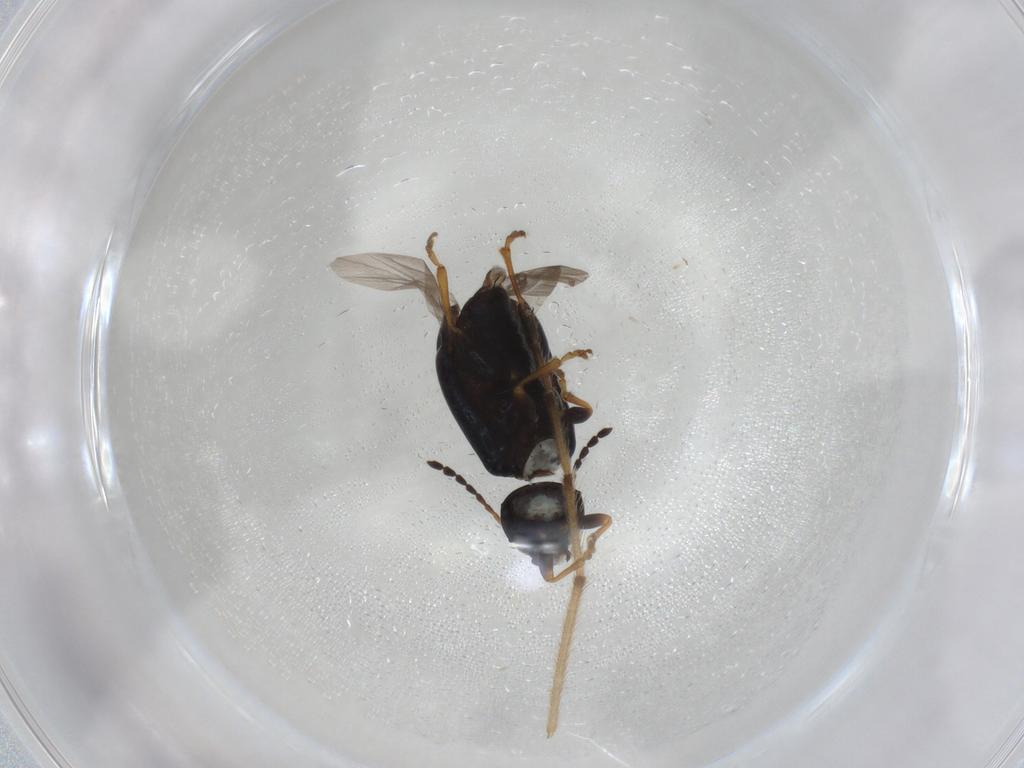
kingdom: Animalia
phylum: Arthropoda
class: Insecta
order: Coleoptera
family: Chrysomelidae
